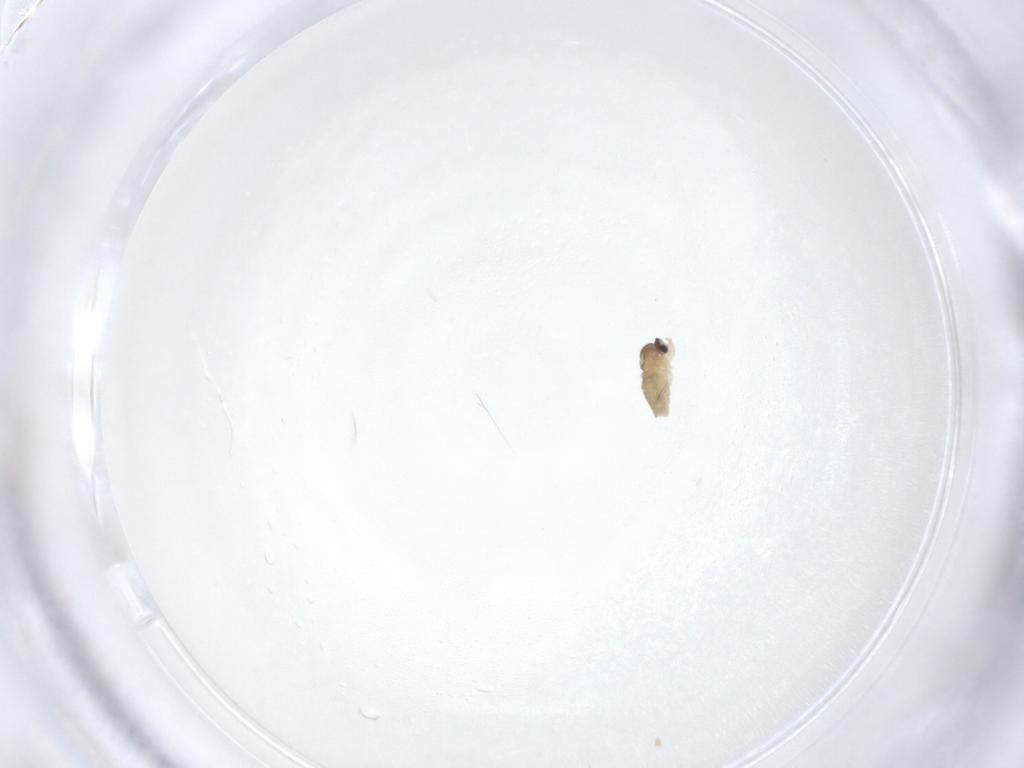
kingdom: Animalia
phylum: Arthropoda
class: Insecta
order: Diptera
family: Cecidomyiidae
